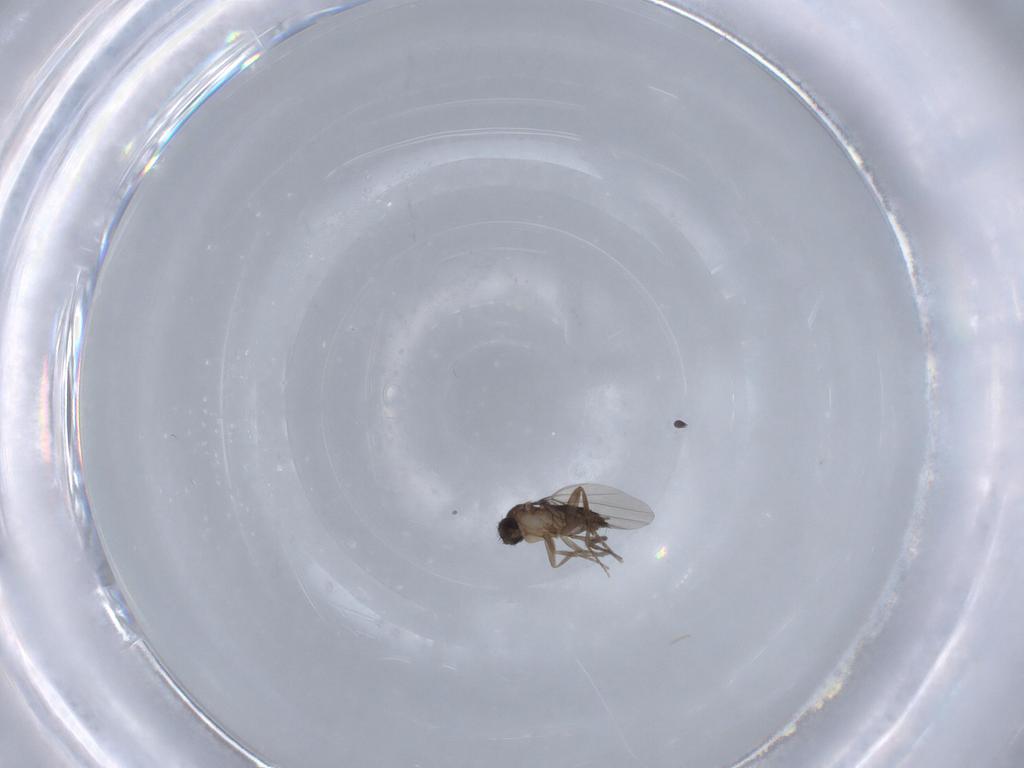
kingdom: Animalia
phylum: Arthropoda
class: Insecta
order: Diptera
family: Phoridae
